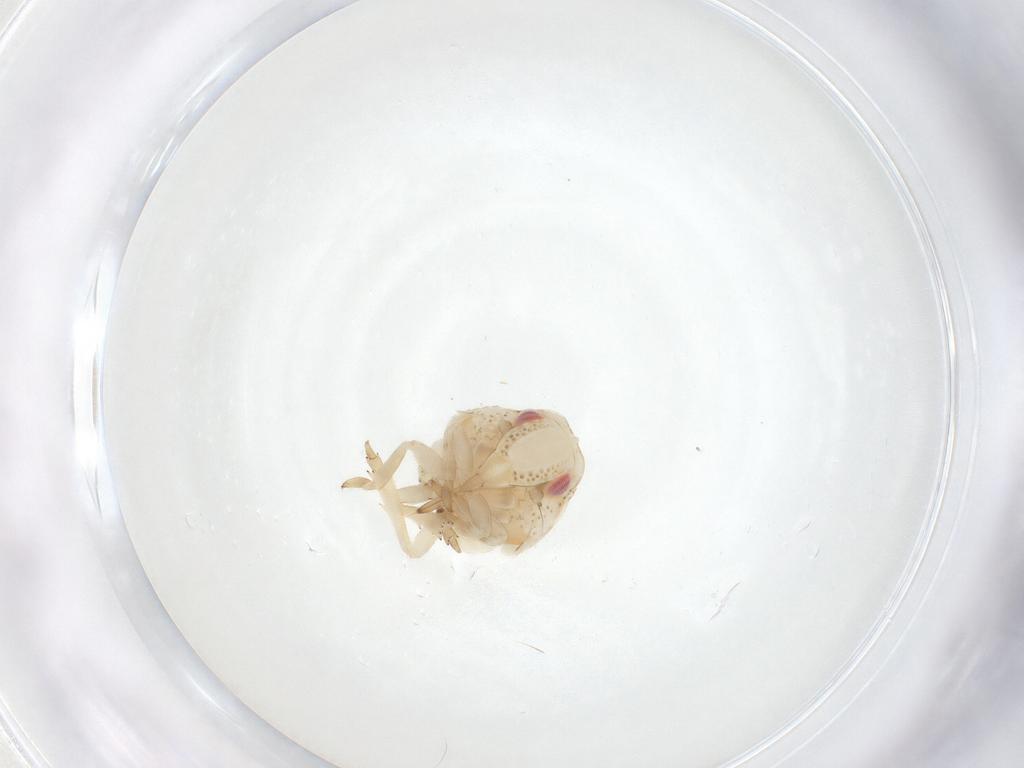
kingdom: Animalia
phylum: Arthropoda
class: Insecta
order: Hemiptera
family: Acanaloniidae
